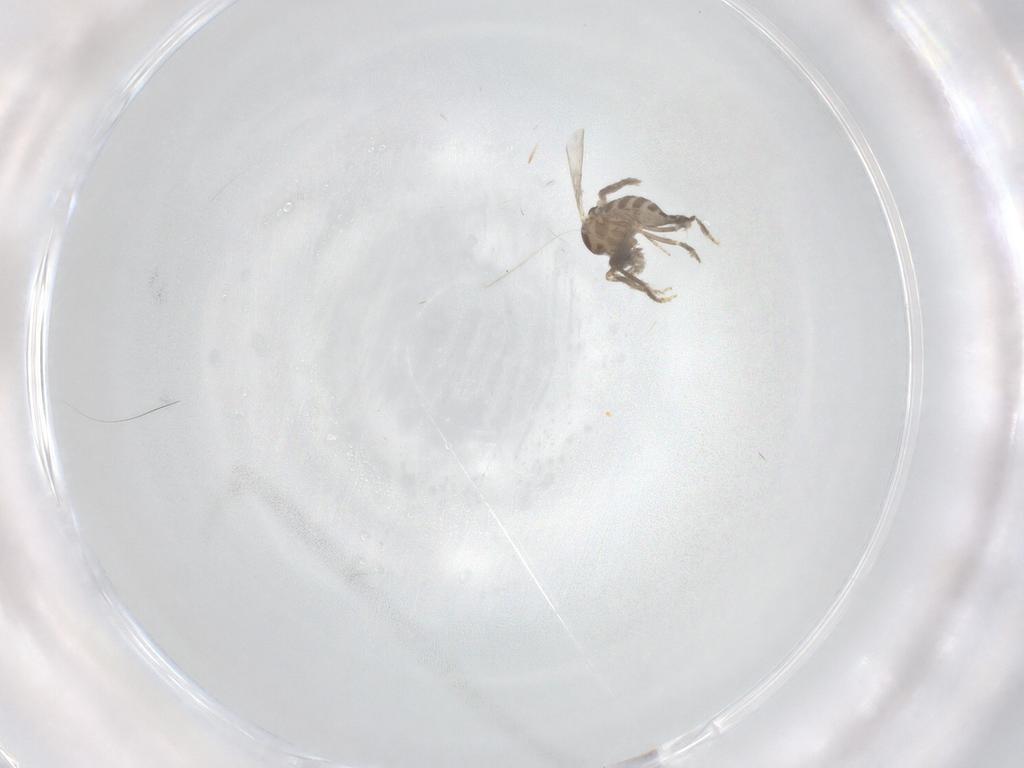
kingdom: Animalia
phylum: Arthropoda
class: Insecta
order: Diptera
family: Ceratopogonidae
